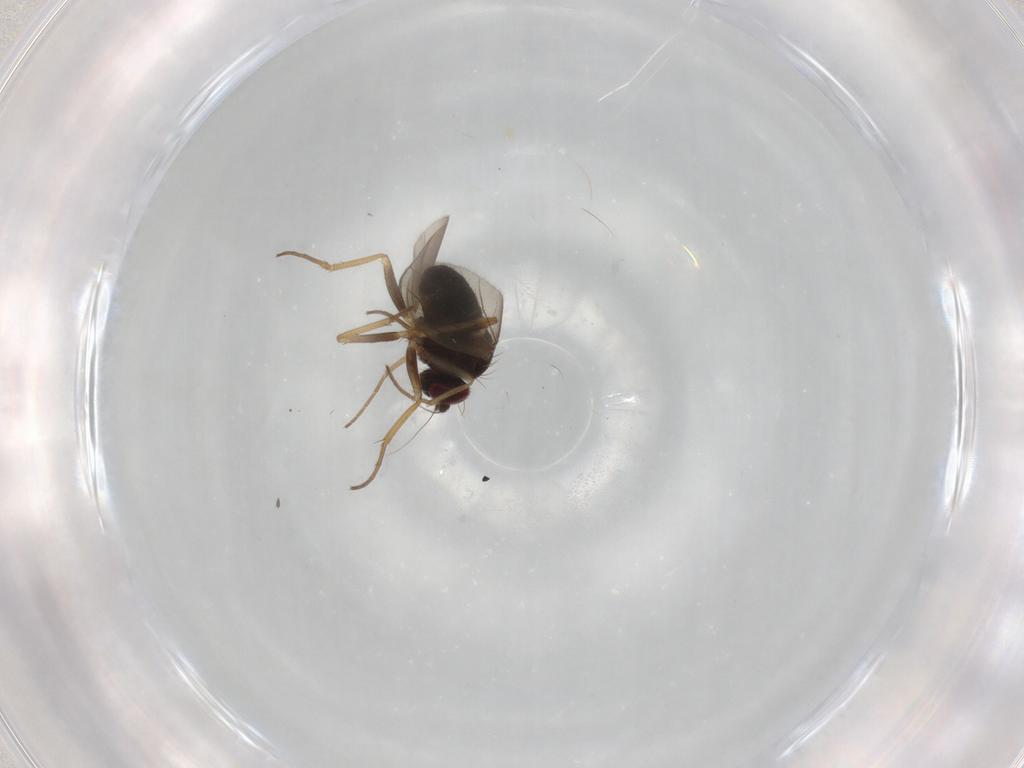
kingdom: Animalia
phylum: Arthropoda
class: Insecta
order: Diptera
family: Dolichopodidae
